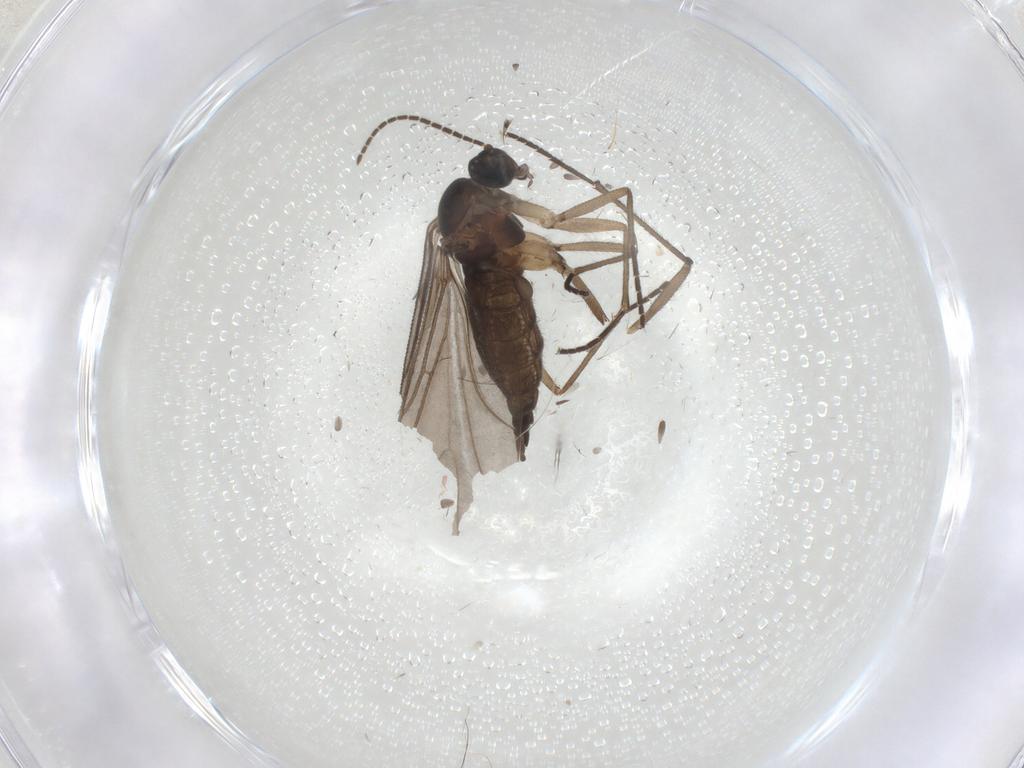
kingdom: Animalia
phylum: Arthropoda
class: Insecta
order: Diptera
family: Sciaridae
